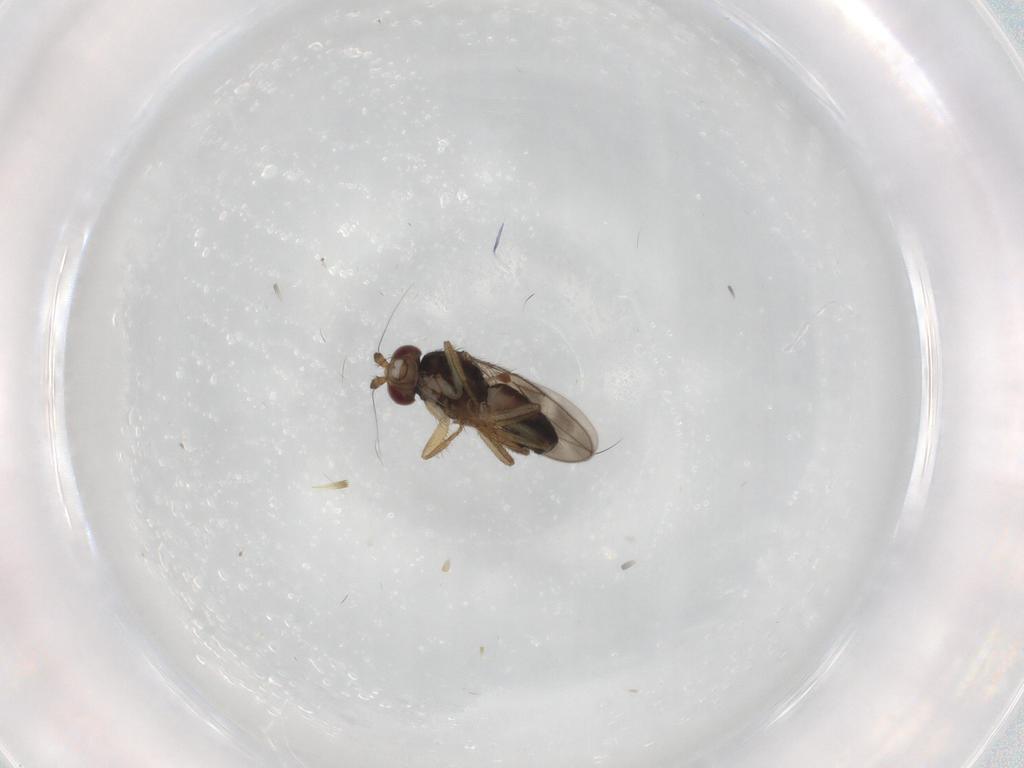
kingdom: Animalia
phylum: Arthropoda
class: Insecta
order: Diptera
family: Sphaeroceridae
